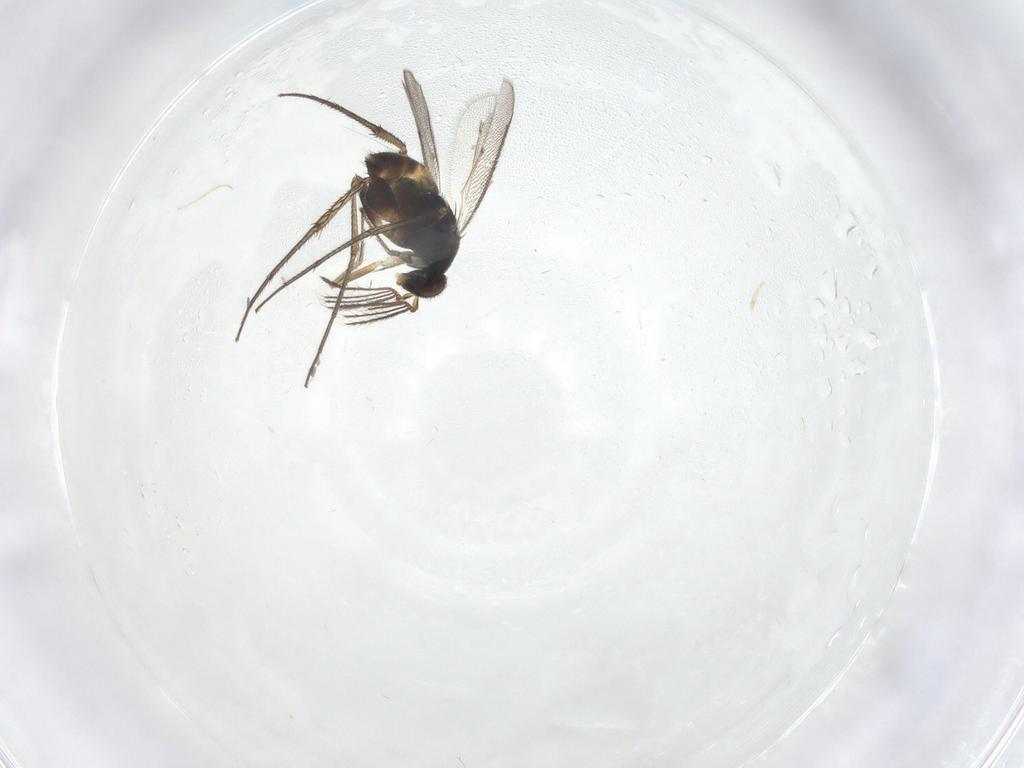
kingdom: Animalia
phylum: Arthropoda
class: Insecta
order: Hymenoptera
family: Eulophidae
